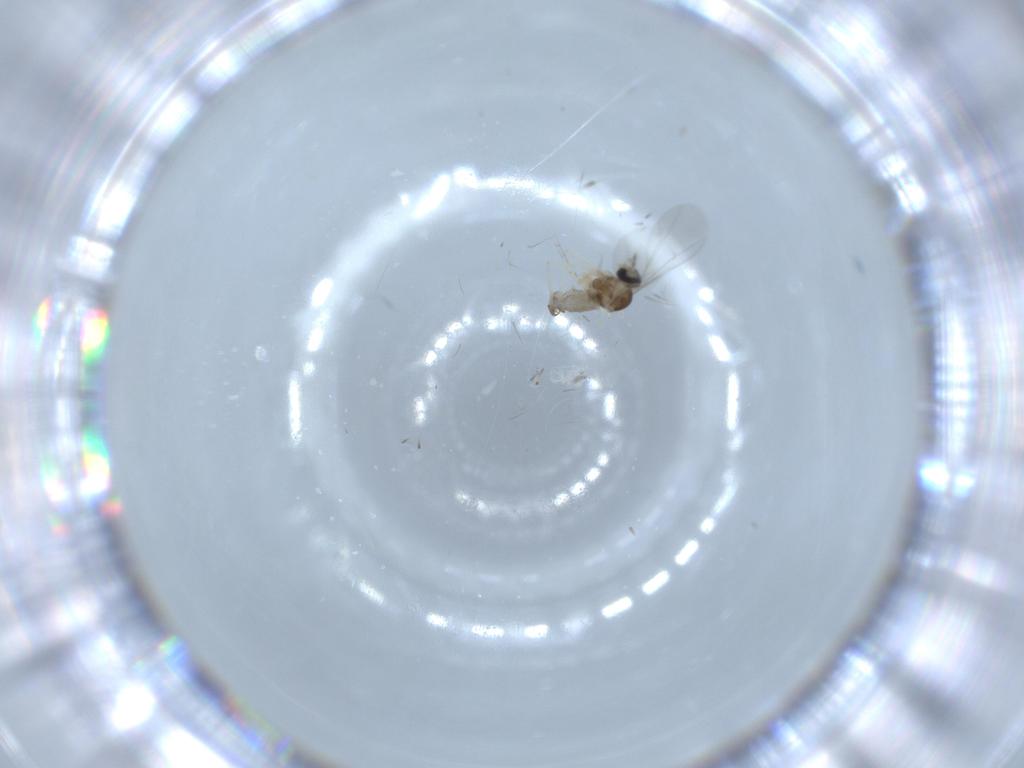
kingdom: Animalia
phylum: Arthropoda
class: Insecta
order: Diptera
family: Cecidomyiidae
